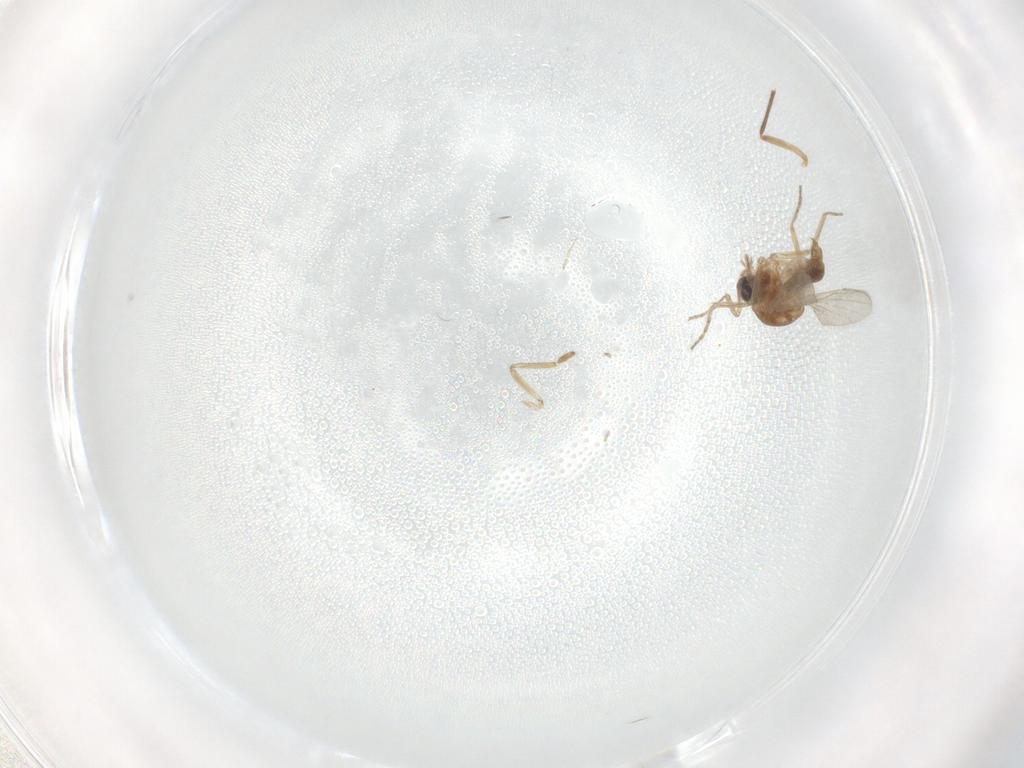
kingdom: Animalia
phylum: Arthropoda
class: Insecta
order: Diptera
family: Chironomidae
